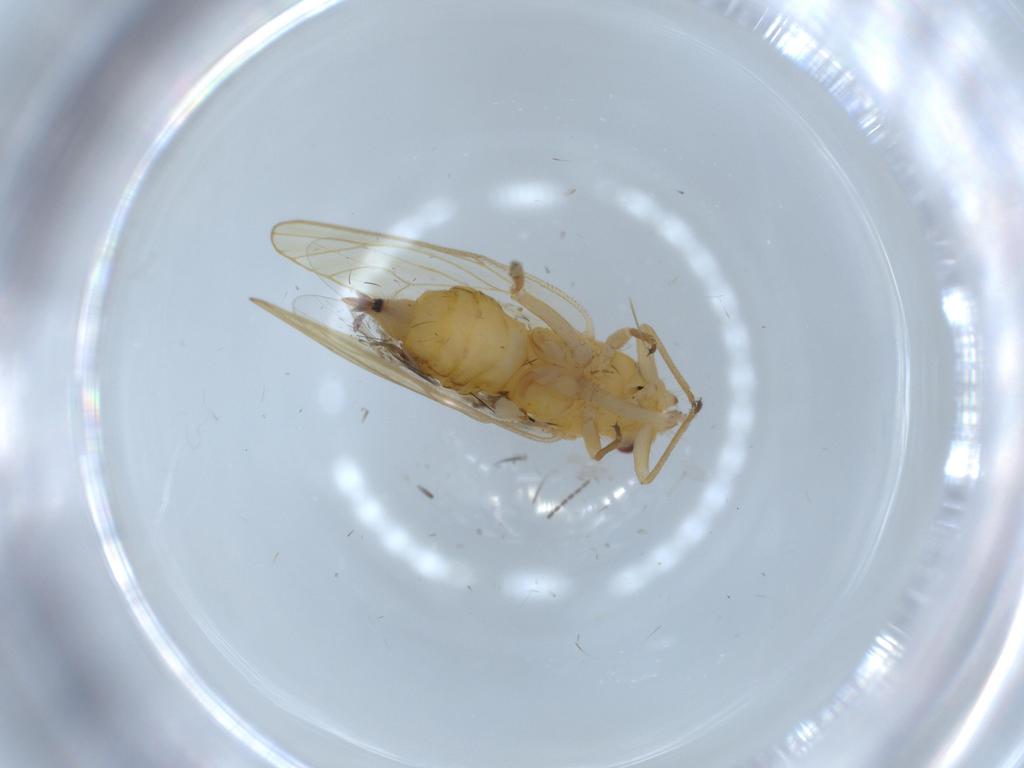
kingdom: Animalia
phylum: Arthropoda
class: Insecta
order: Hemiptera
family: Psyllidae
